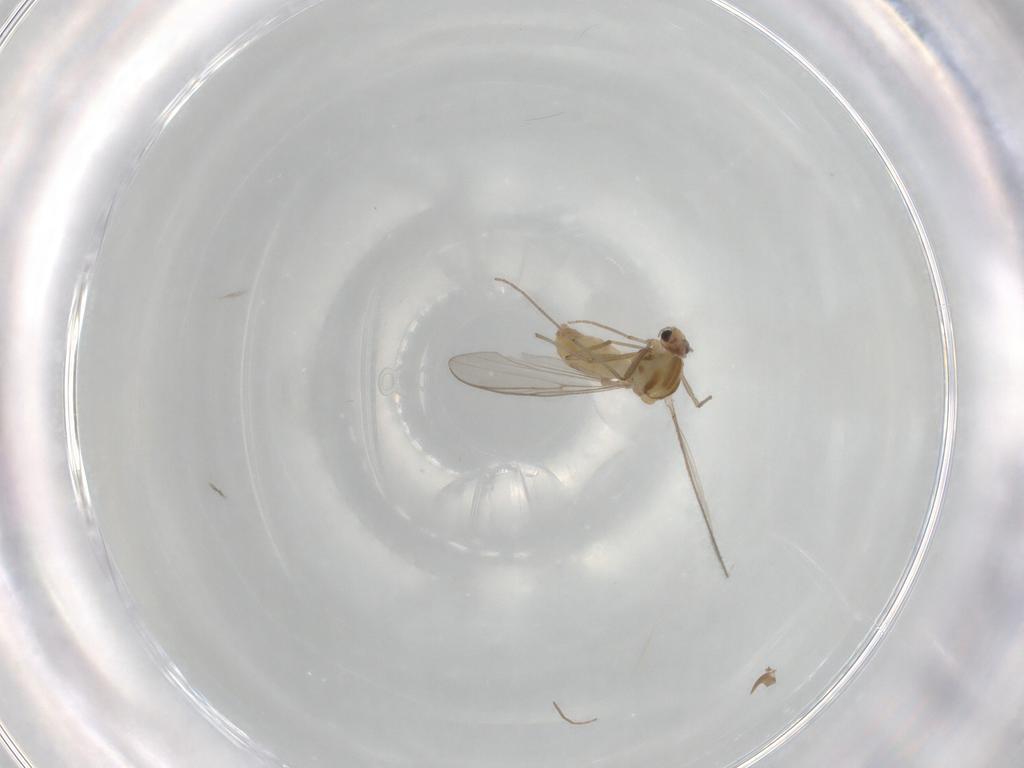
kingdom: Animalia
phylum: Arthropoda
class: Insecta
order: Diptera
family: Chironomidae
